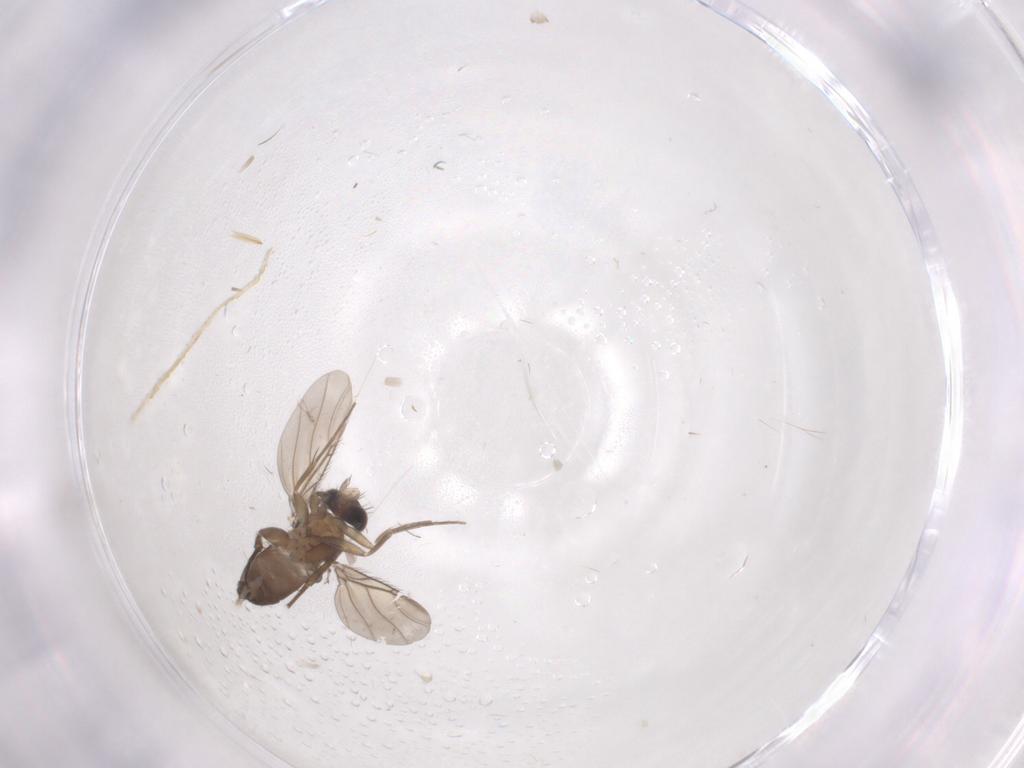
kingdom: Animalia
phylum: Arthropoda
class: Insecta
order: Diptera
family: Phoridae
